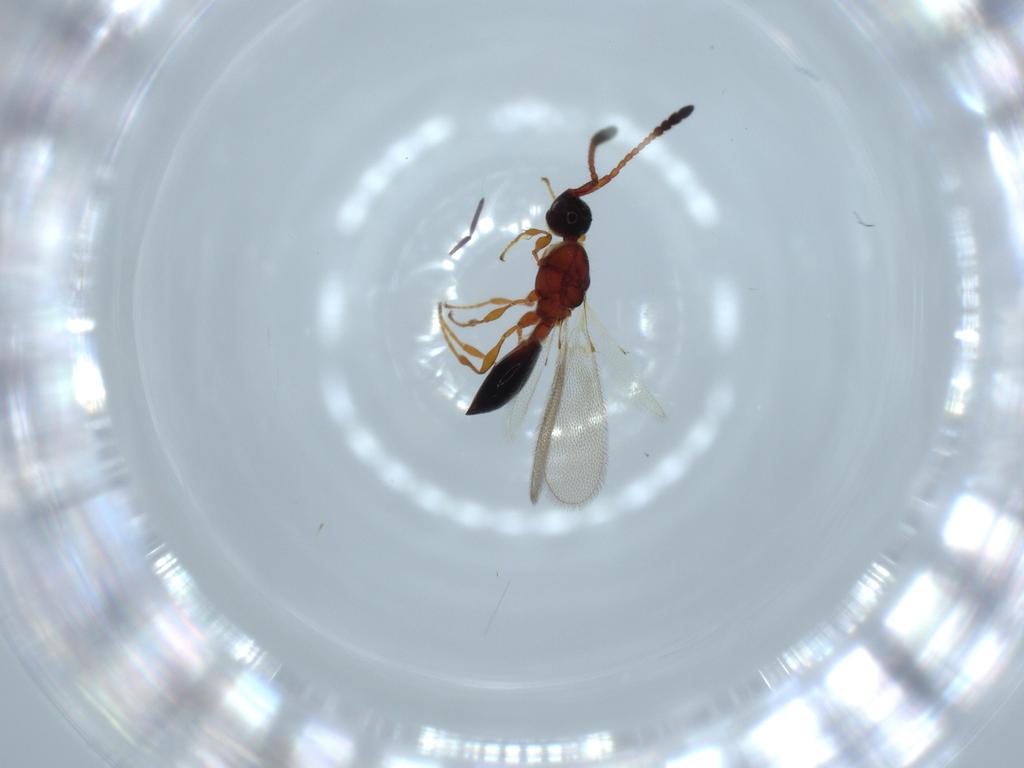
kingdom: Animalia
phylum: Arthropoda
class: Insecta
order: Hymenoptera
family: Diapriidae
